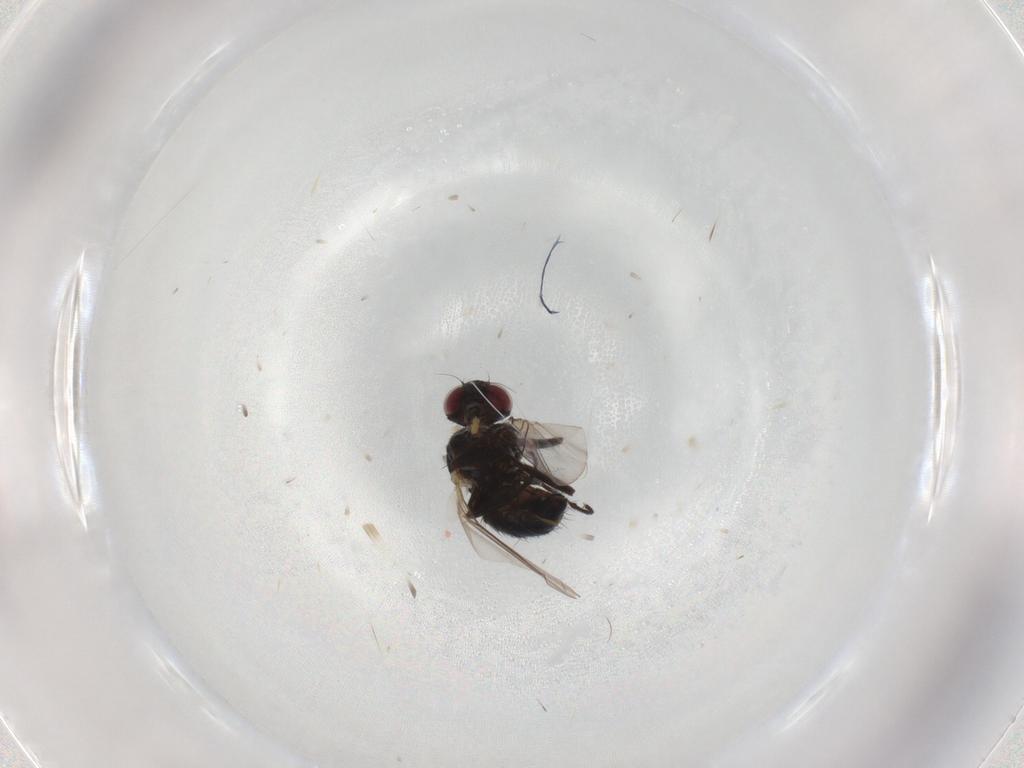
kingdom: Animalia
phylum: Arthropoda
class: Insecta
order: Diptera
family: Agromyzidae
